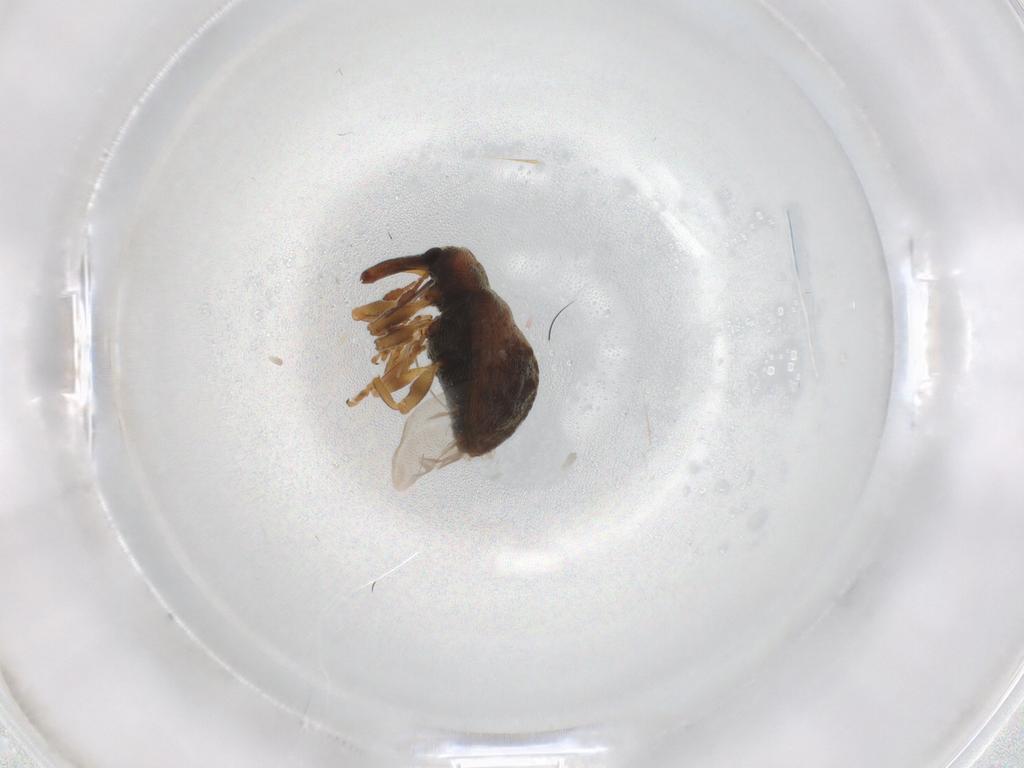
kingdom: Animalia
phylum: Arthropoda
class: Insecta
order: Coleoptera
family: Curculionidae
